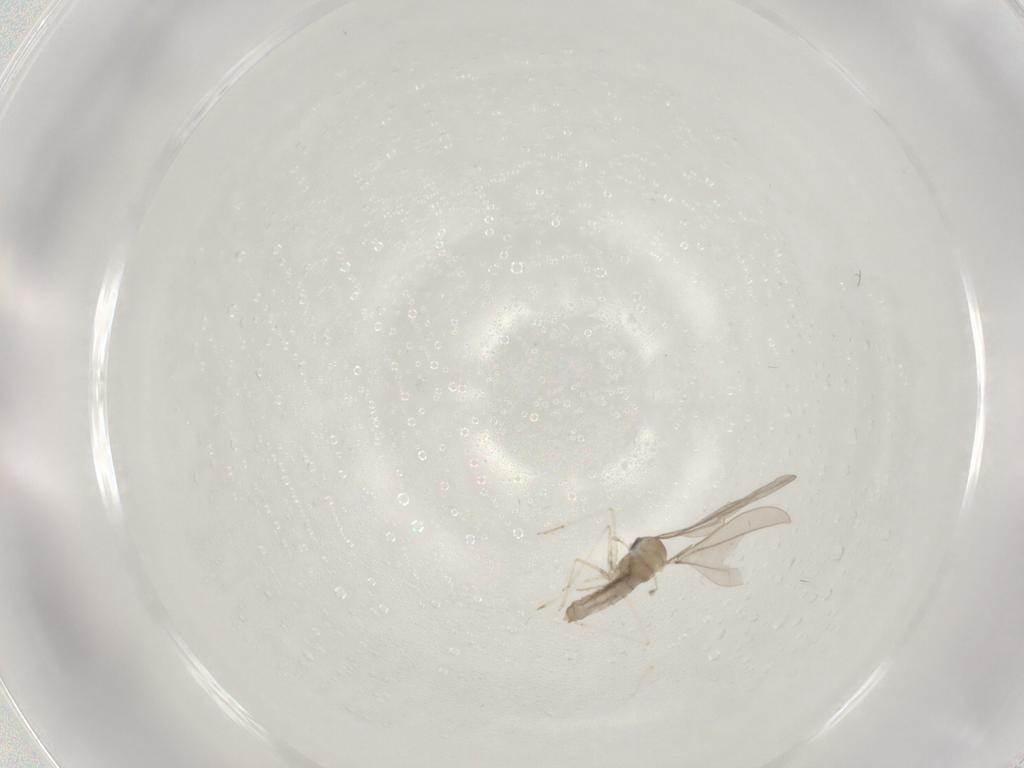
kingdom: Animalia
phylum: Arthropoda
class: Insecta
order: Diptera
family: Cecidomyiidae
